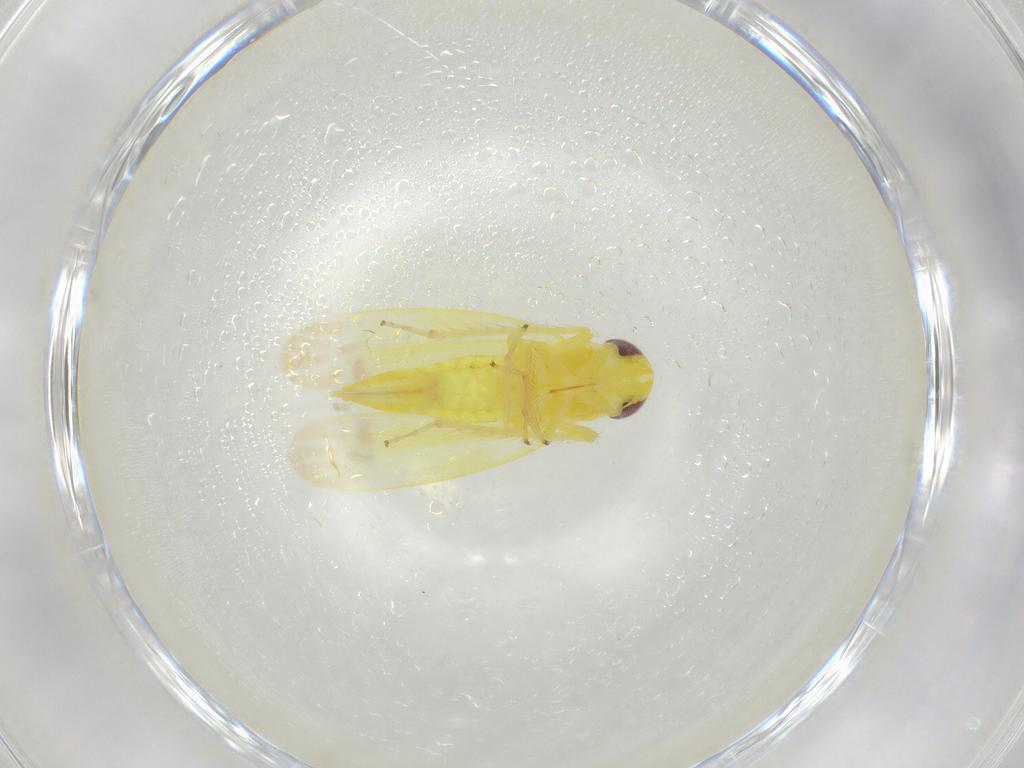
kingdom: Animalia
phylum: Arthropoda
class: Insecta
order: Hemiptera
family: Cicadellidae
